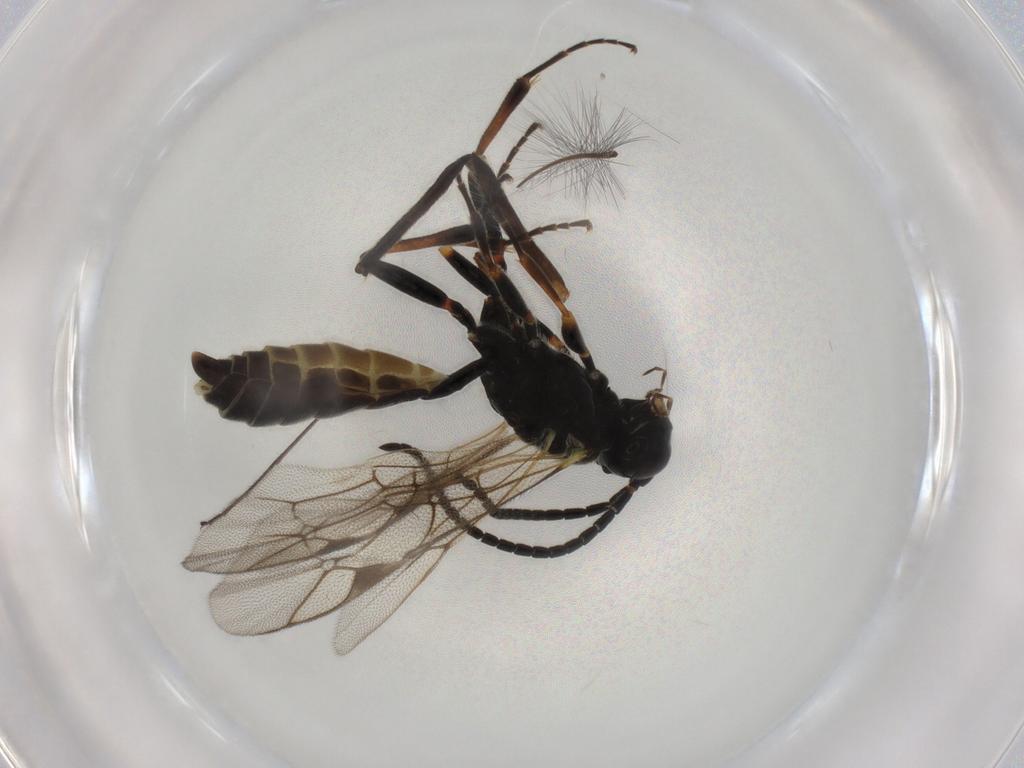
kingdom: Animalia
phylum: Arthropoda
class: Insecta
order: Hymenoptera
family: Ichneumonidae
